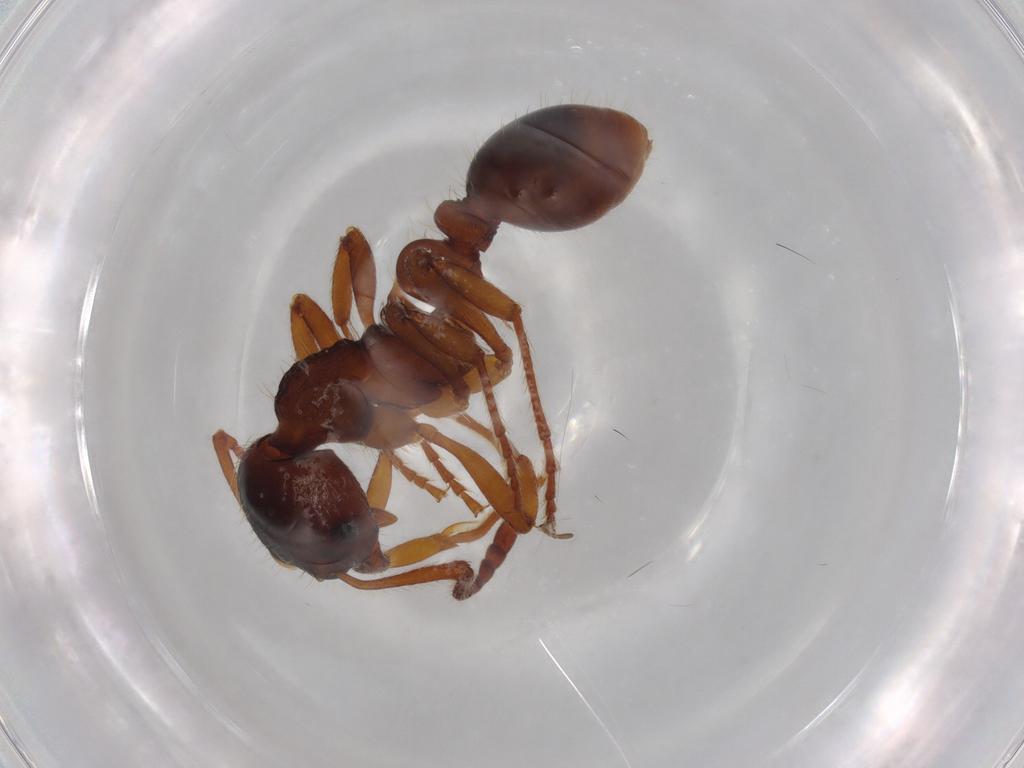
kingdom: Animalia
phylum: Arthropoda
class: Insecta
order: Hymenoptera
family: Formicidae
